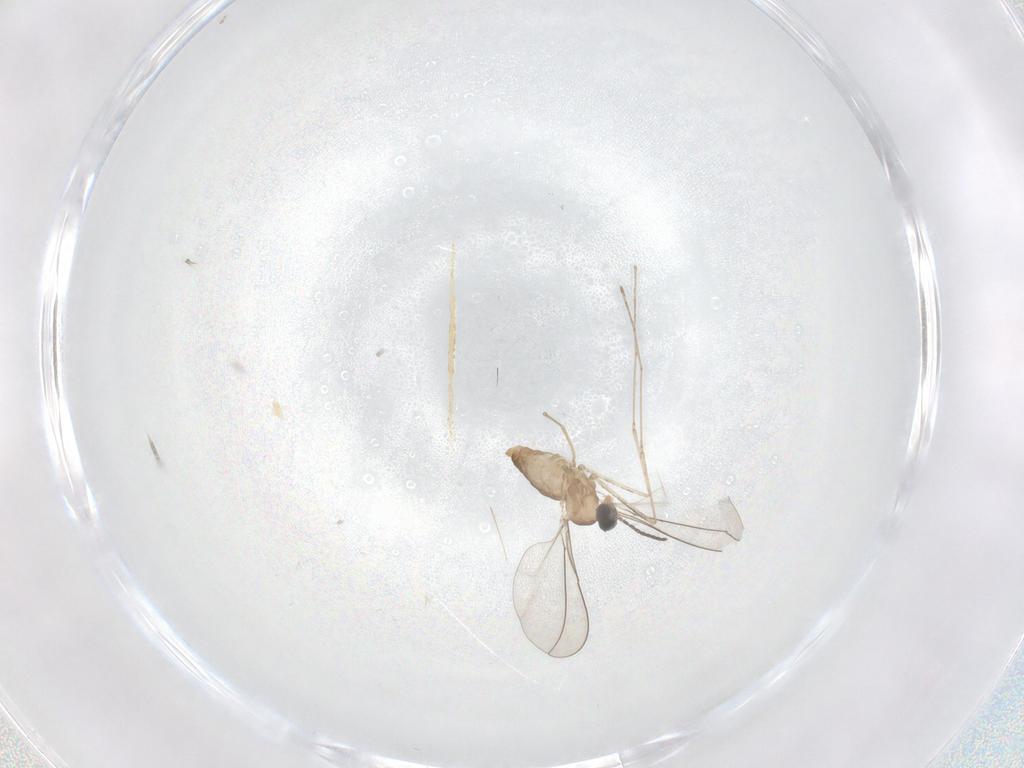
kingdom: Animalia
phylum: Arthropoda
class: Insecta
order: Diptera
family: Cecidomyiidae
